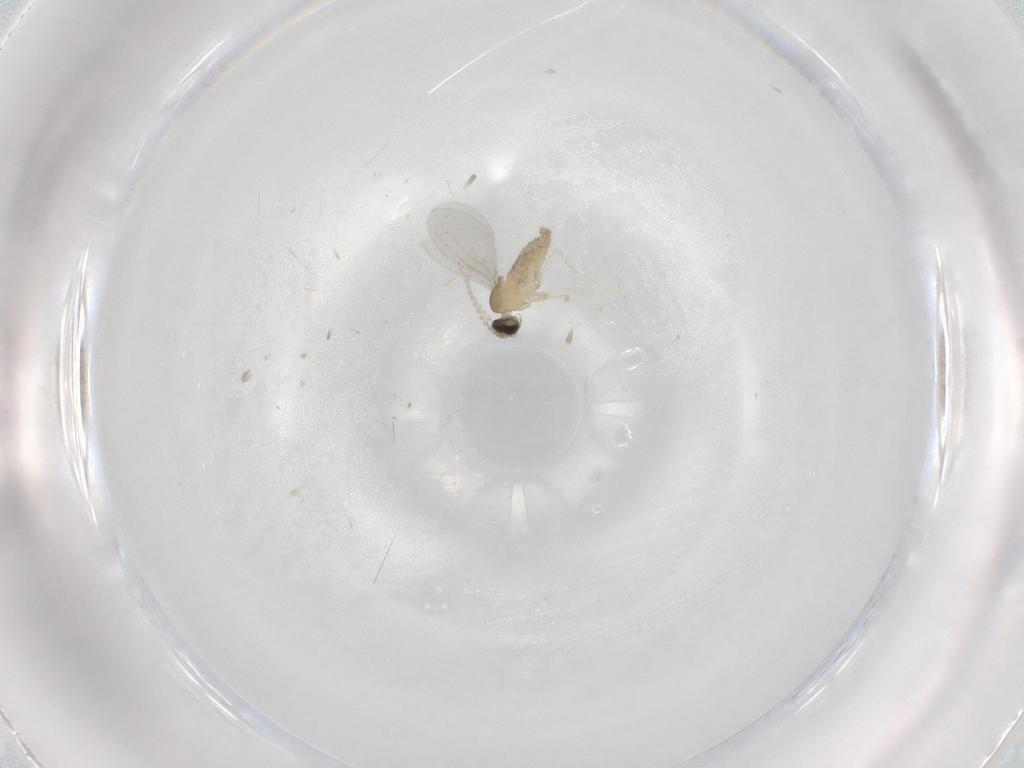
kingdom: Animalia
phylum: Arthropoda
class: Insecta
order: Diptera
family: Cecidomyiidae
